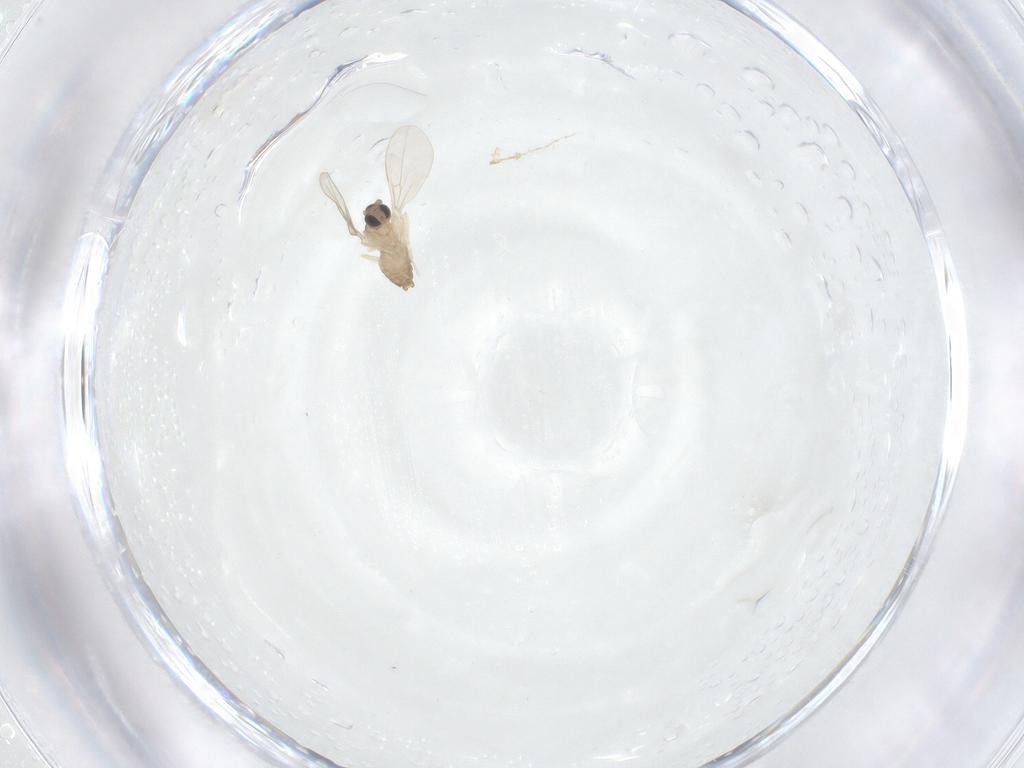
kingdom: Animalia
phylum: Arthropoda
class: Insecta
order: Diptera
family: Cecidomyiidae
